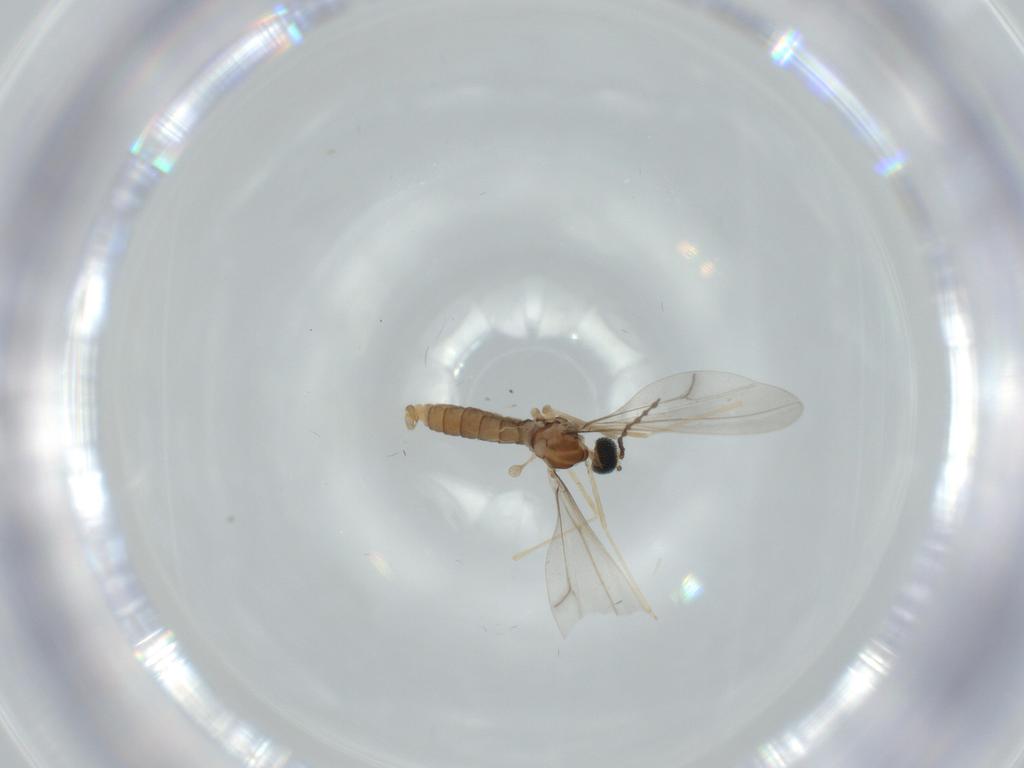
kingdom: Animalia
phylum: Arthropoda
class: Insecta
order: Diptera
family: Cecidomyiidae
